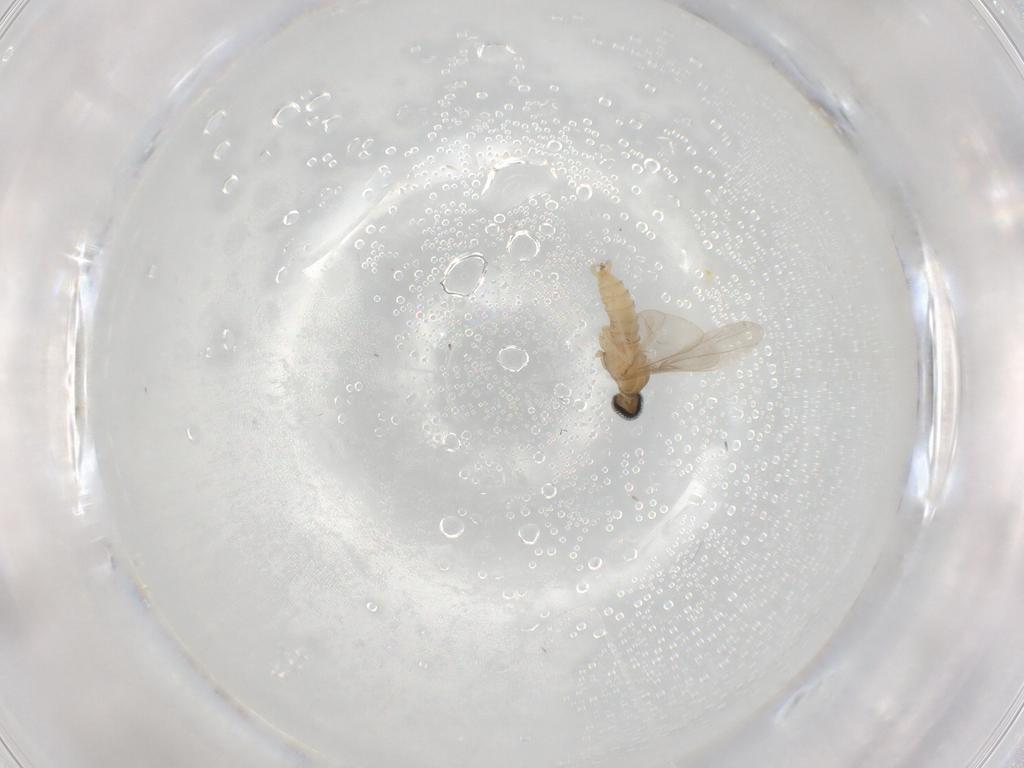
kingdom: Animalia
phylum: Arthropoda
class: Insecta
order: Diptera
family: Cecidomyiidae
